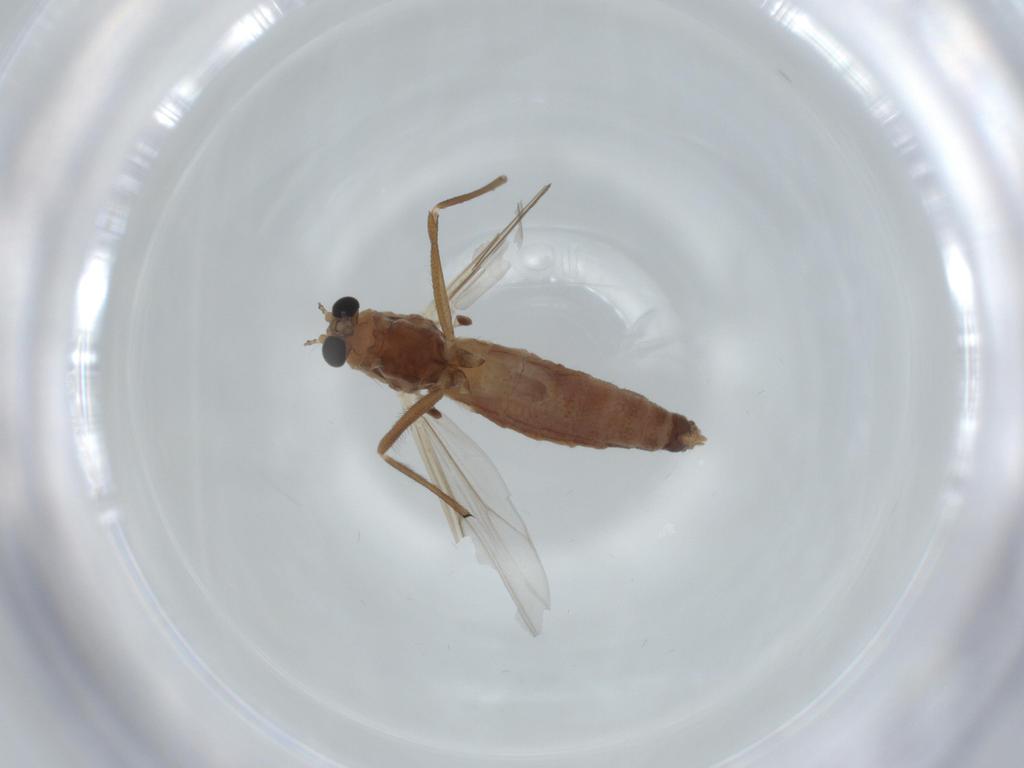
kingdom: Animalia
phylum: Arthropoda
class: Insecta
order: Diptera
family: Chironomidae
